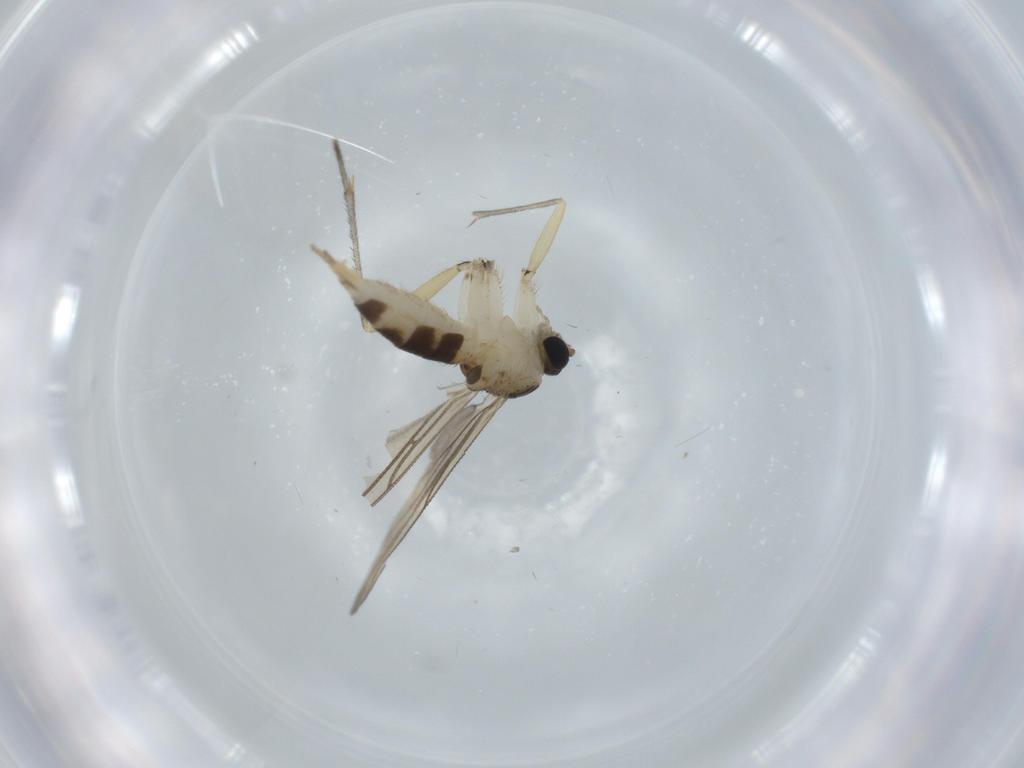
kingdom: Animalia
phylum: Arthropoda
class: Insecta
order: Diptera
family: Sciaridae
